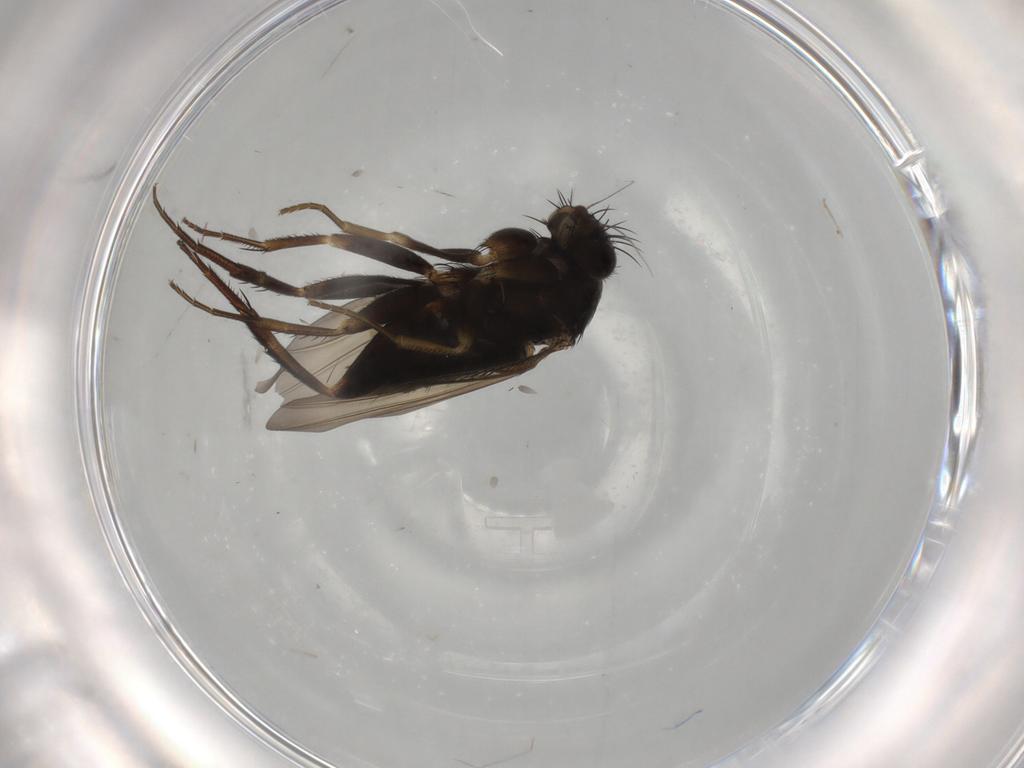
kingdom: Animalia
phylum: Arthropoda
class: Insecta
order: Diptera
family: Phoridae
